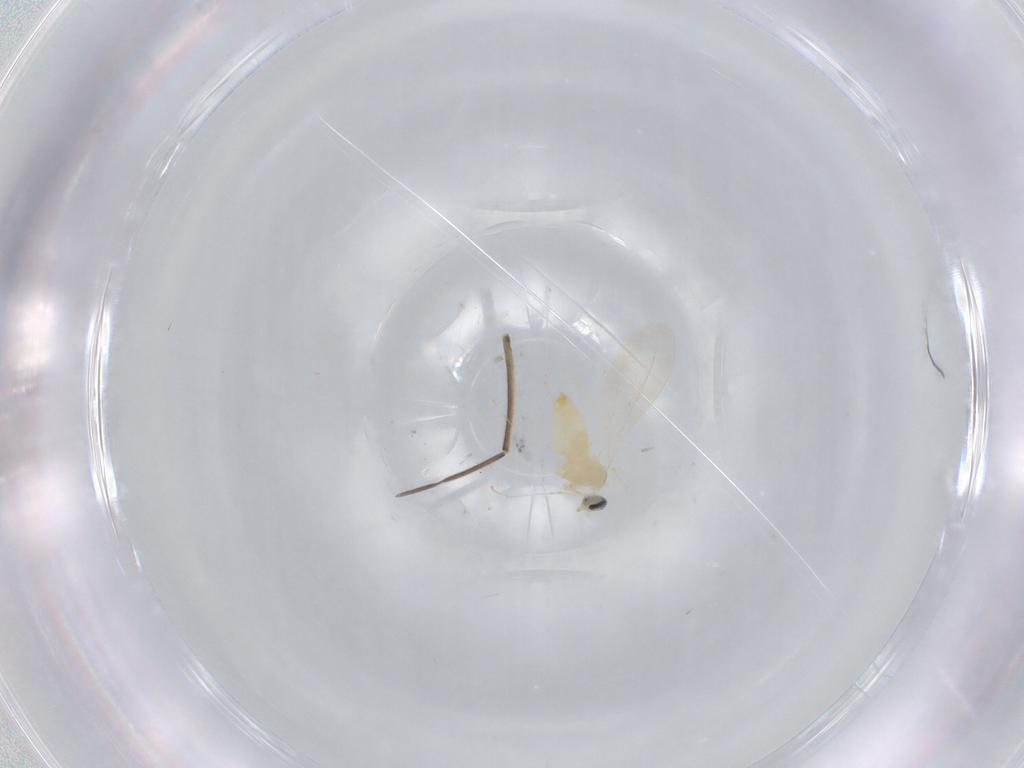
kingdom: Animalia
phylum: Arthropoda
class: Insecta
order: Diptera
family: Cecidomyiidae
